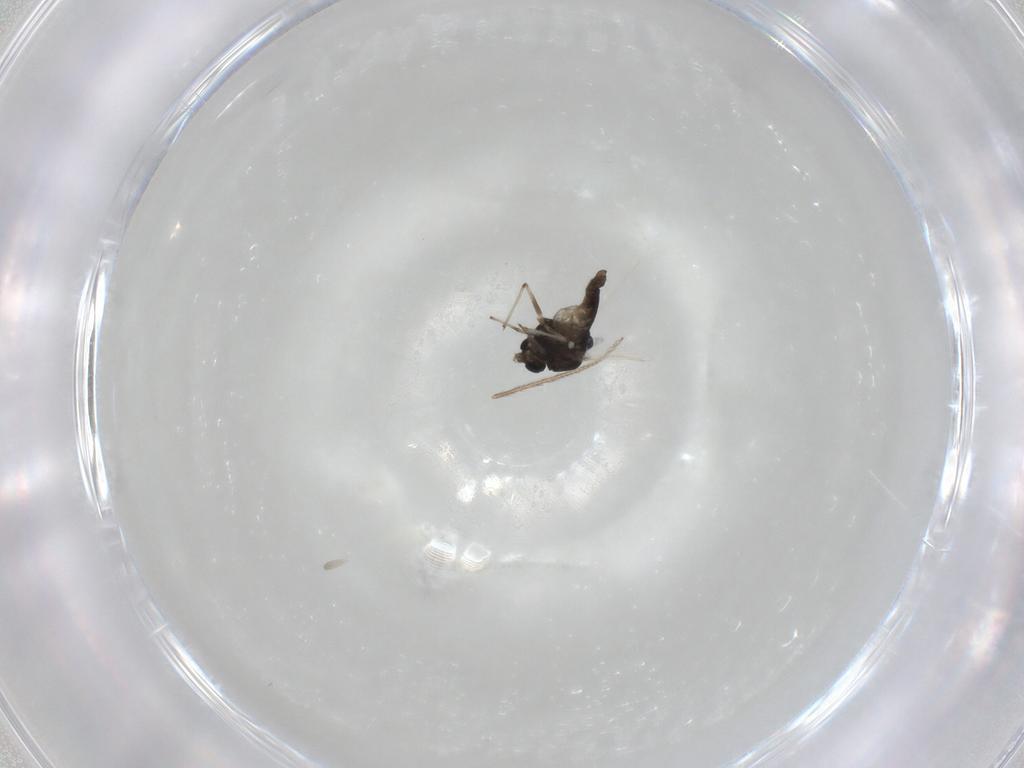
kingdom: Animalia
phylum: Arthropoda
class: Insecta
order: Diptera
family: Chironomidae
